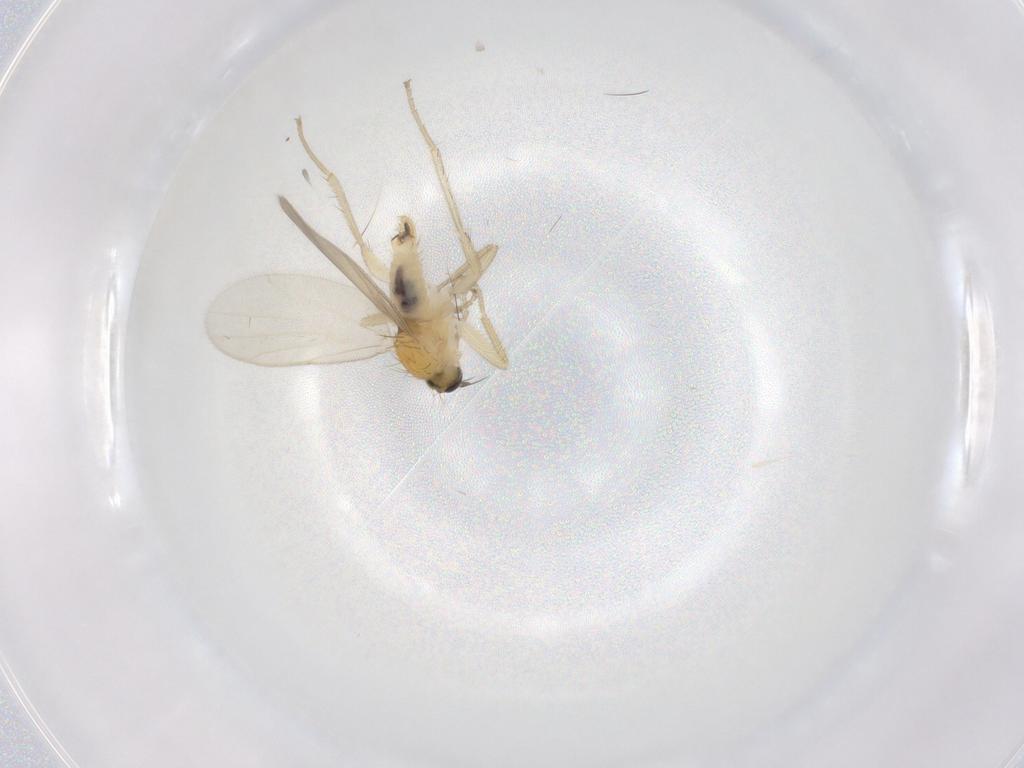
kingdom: Animalia
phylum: Arthropoda
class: Insecta
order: Diptera
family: Hybotidae
